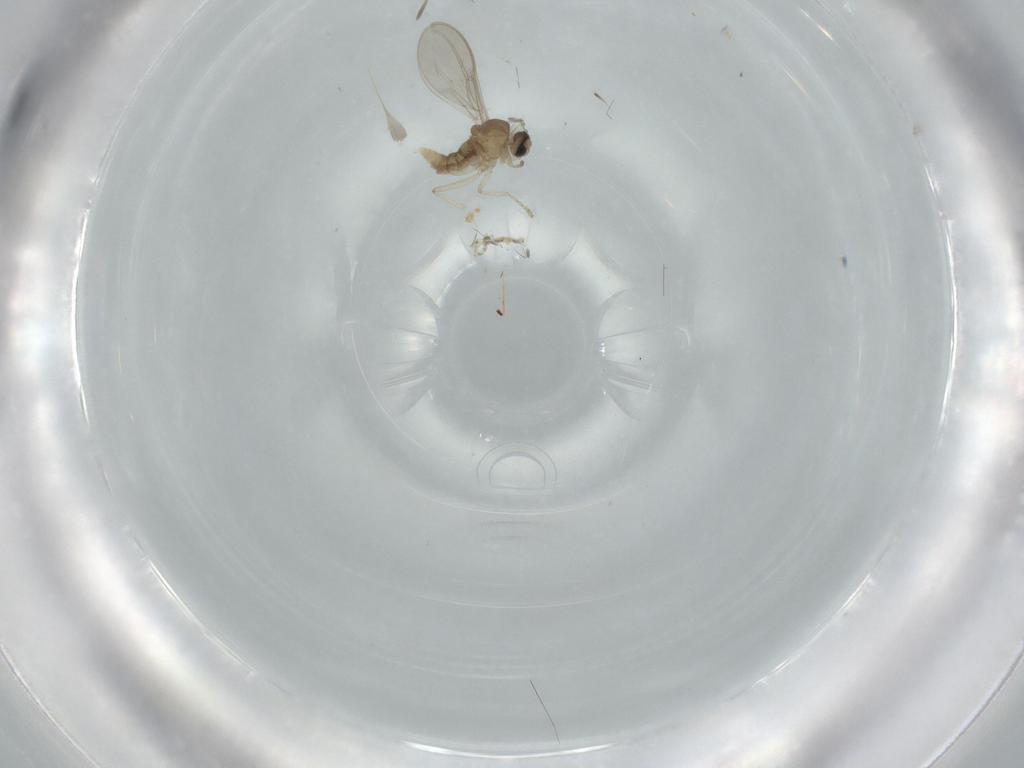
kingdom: Animalia
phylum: Arthropoda
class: Insecta
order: Diptera
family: Cecidomyiidae
